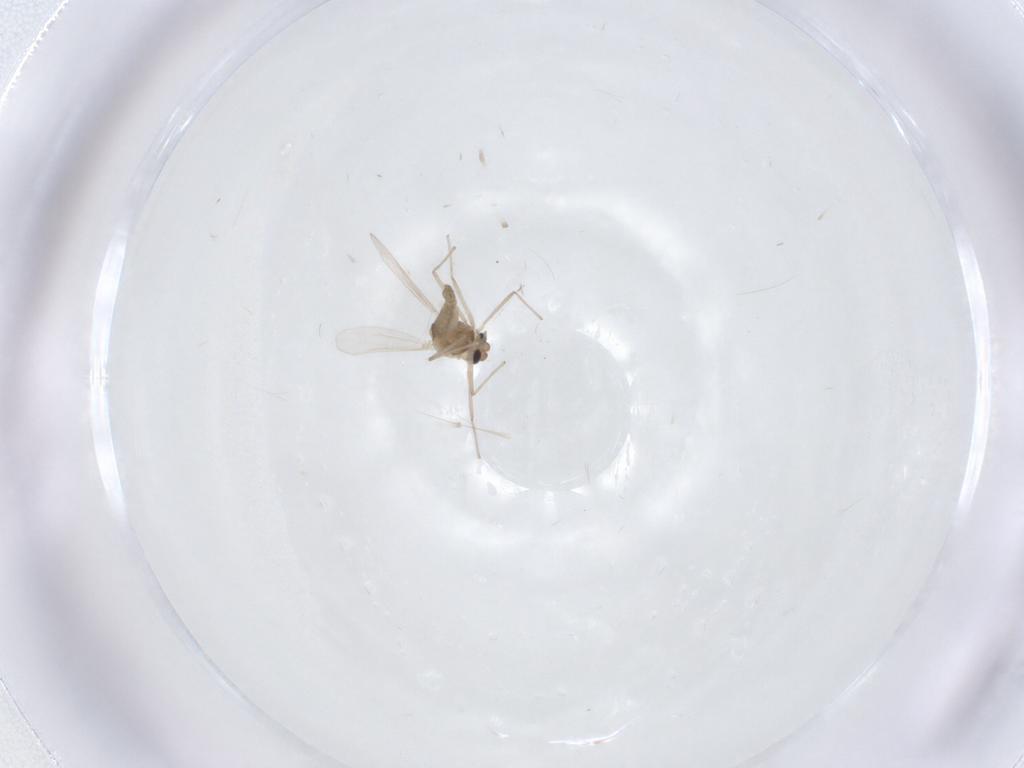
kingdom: Animalia
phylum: Arthropoda
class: Insecta
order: Diptera
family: Chironomidae
